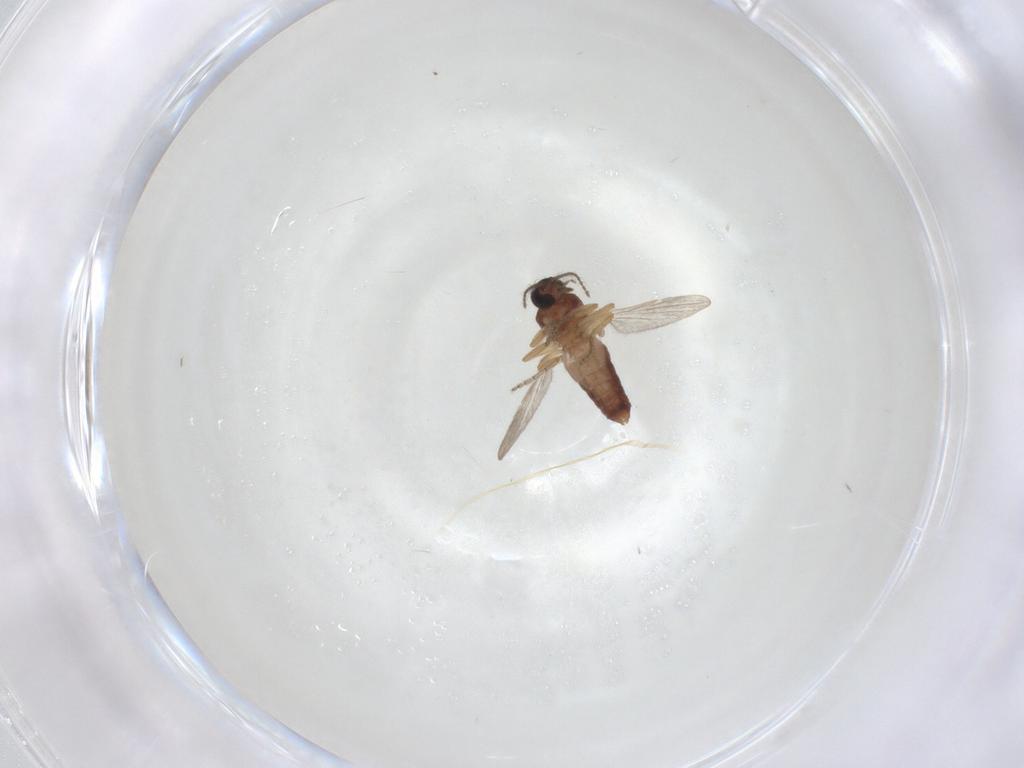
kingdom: Animalia
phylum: Arthropoda
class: Insecta
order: Diptera
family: Ceratopogonidae
